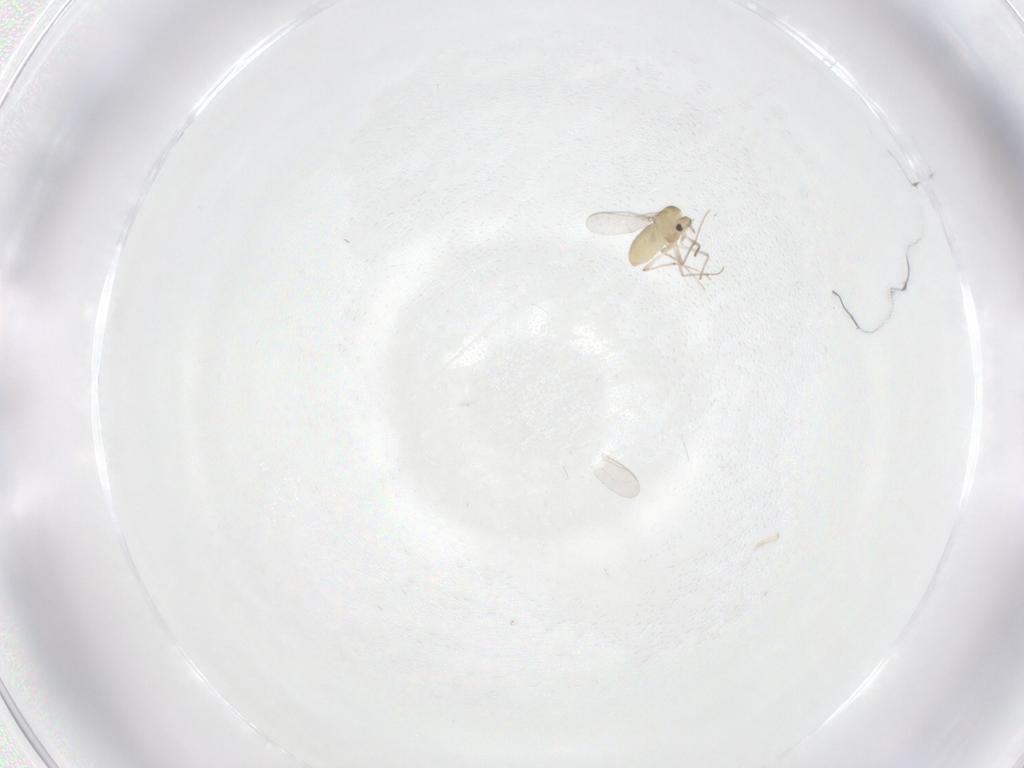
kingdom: Animalia
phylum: Arthropoda
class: Insecta
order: Diptera
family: Chironomidae
